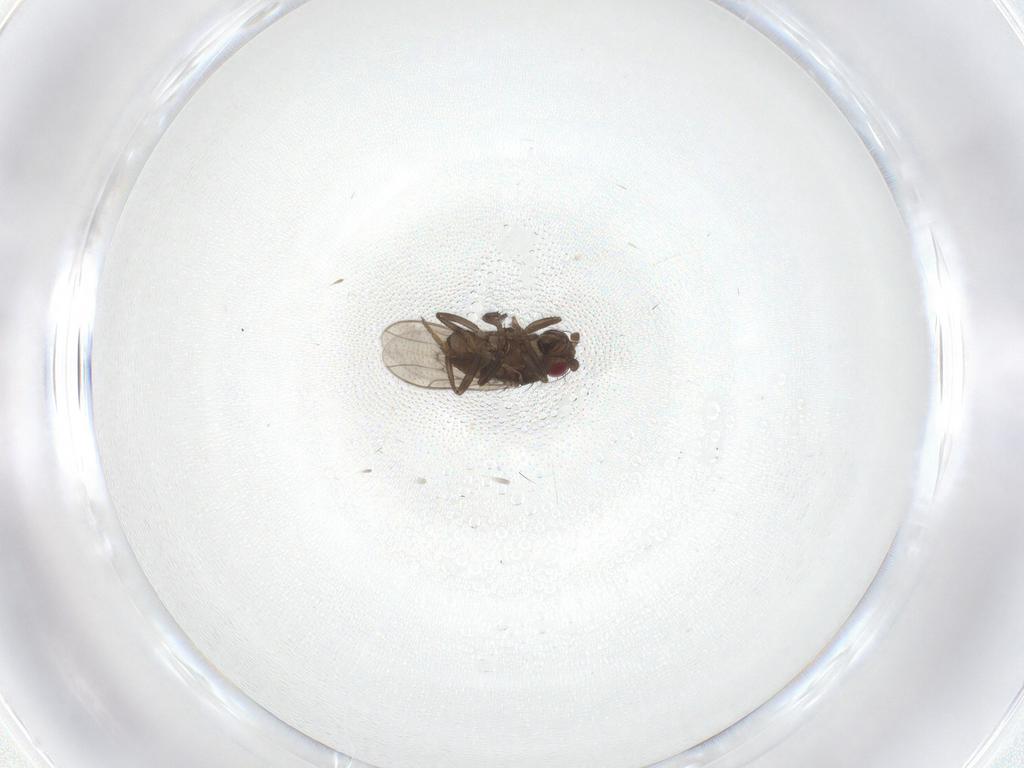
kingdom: Animalia
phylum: Arthropoda
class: Insecta
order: Diptera
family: Sphaeroceridae
